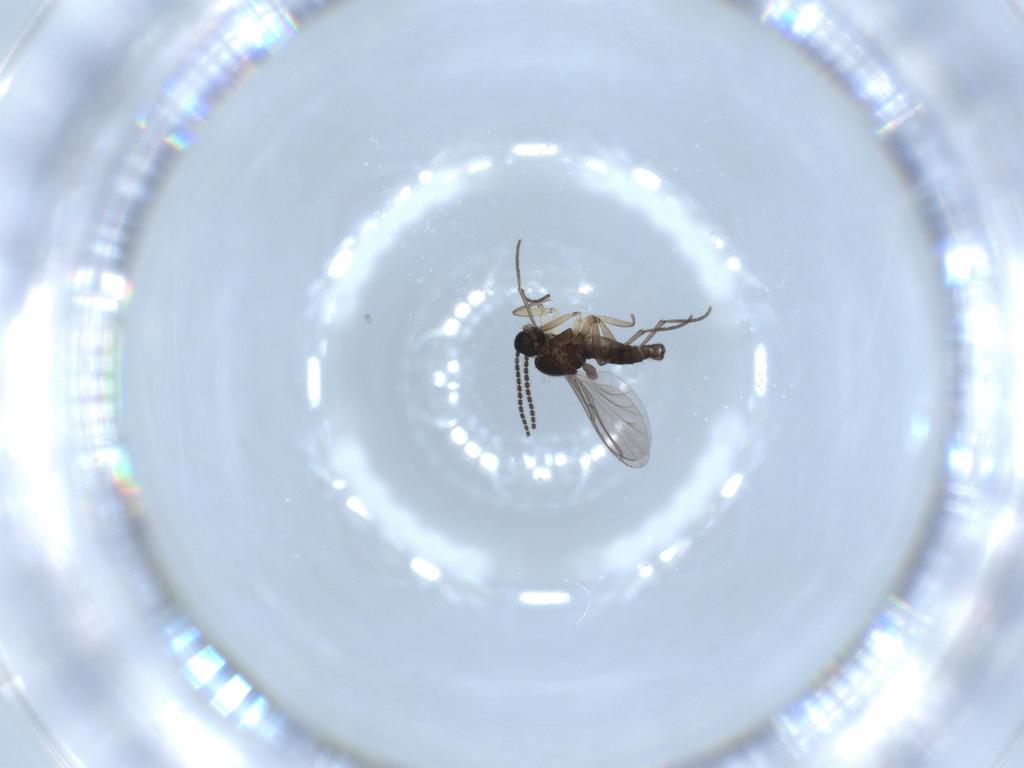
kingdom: Animalia
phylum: Arthropoda
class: Insecta
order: Diptera
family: Sciaridae
